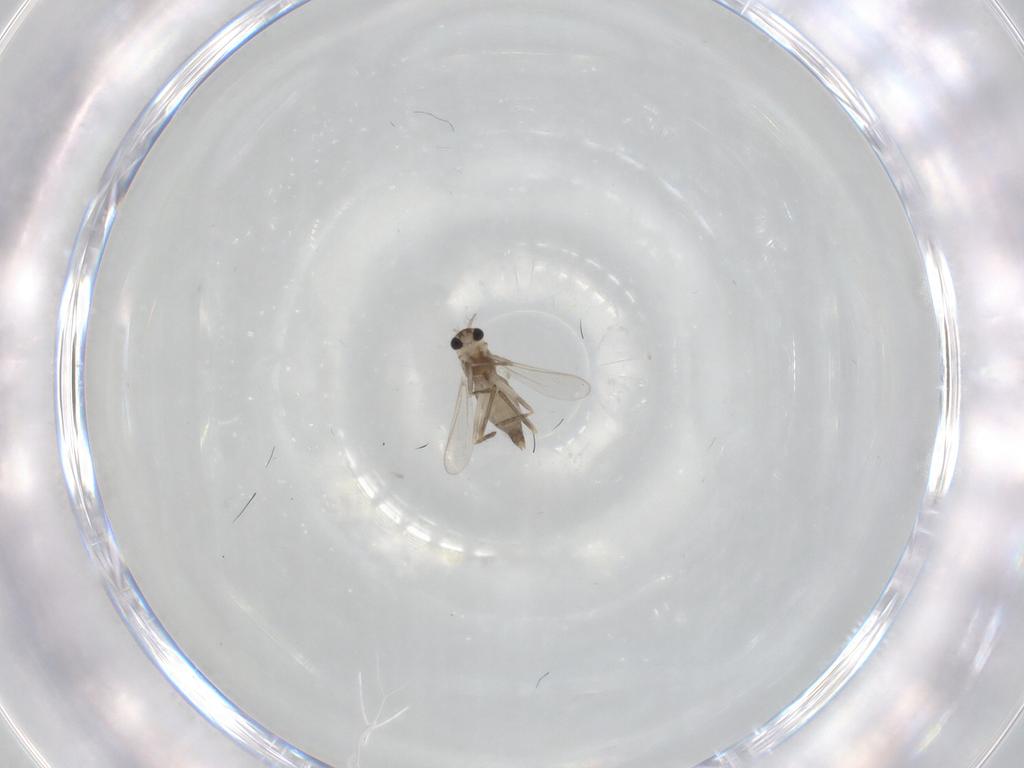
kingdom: Animalia
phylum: Arthropoda
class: Insecta
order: Diptera
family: Chironomidae
